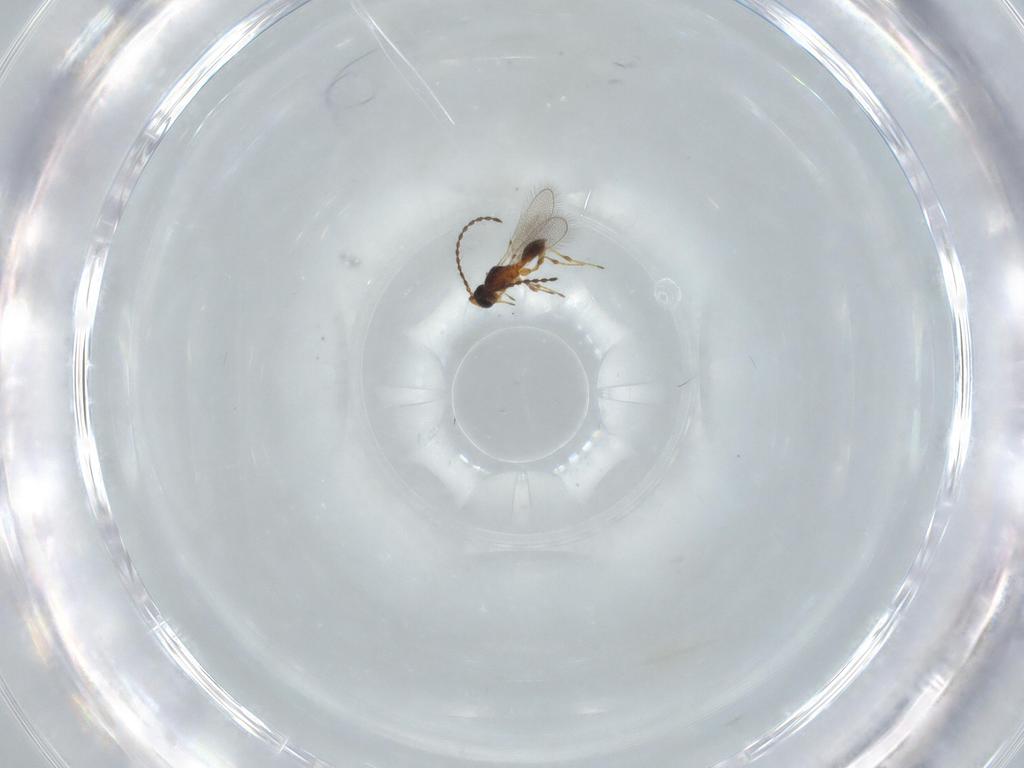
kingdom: Animalia
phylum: Arthropoda
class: Insecta
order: Hymenoptera
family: Diapriidae
